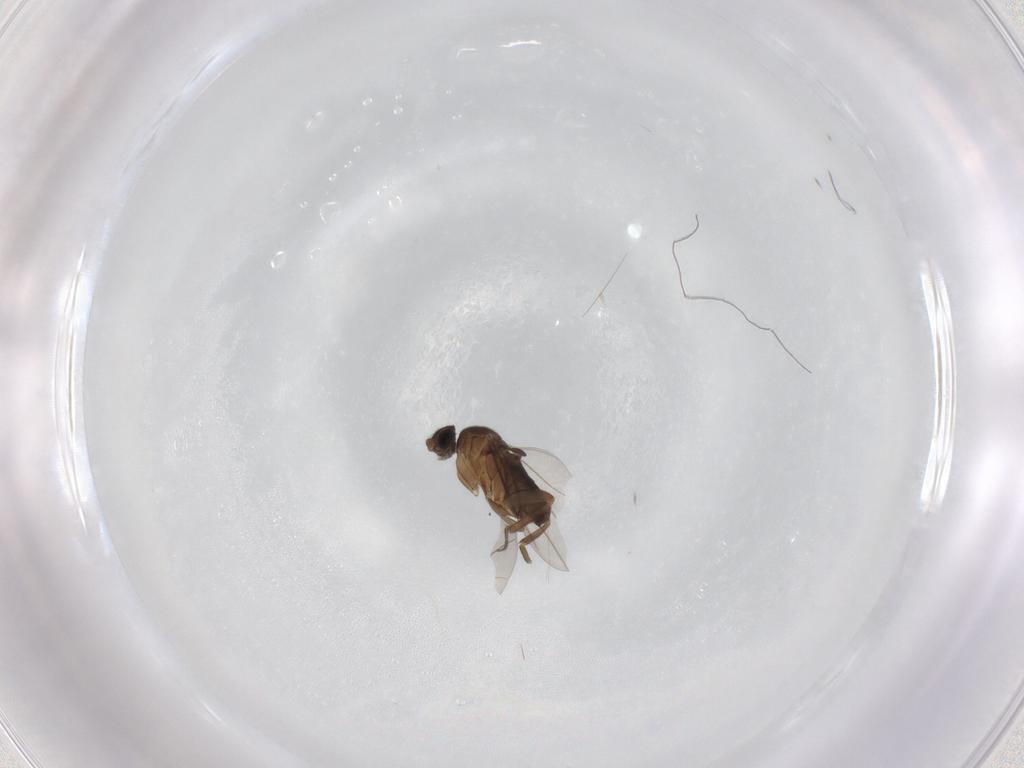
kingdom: Animalia
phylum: Arthropoda
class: Insecta
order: Diptera
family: Phoridae
